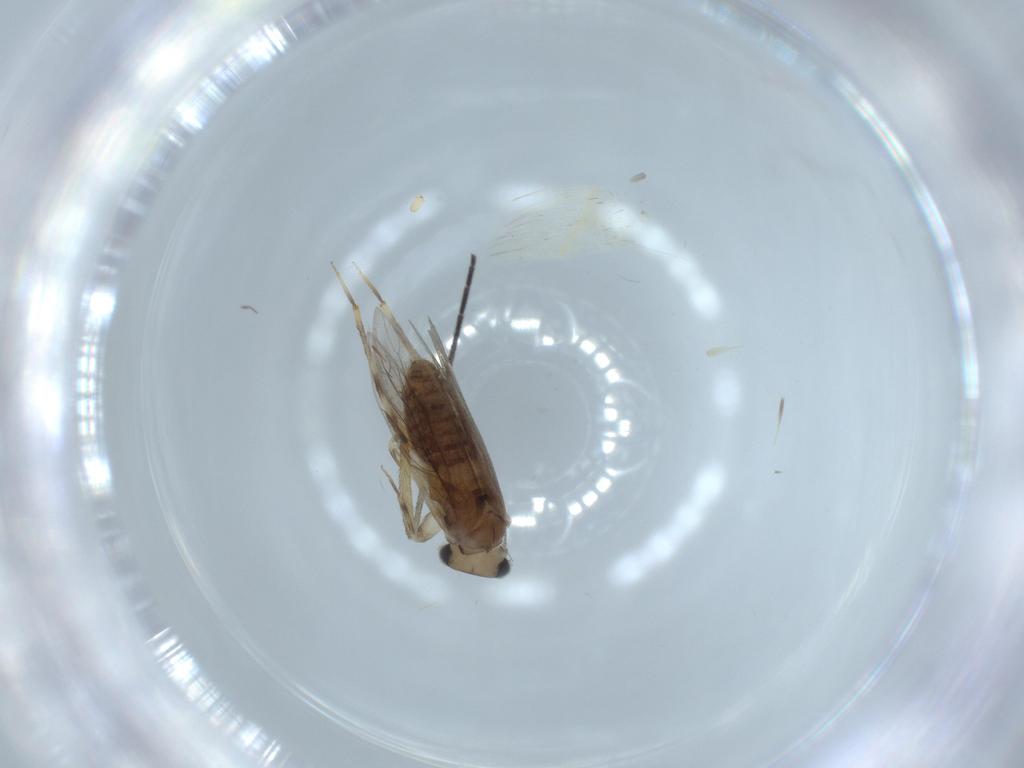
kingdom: Animalia
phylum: Arthropoda
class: Insecta
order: Psocodea
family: Lepidopsocidae
